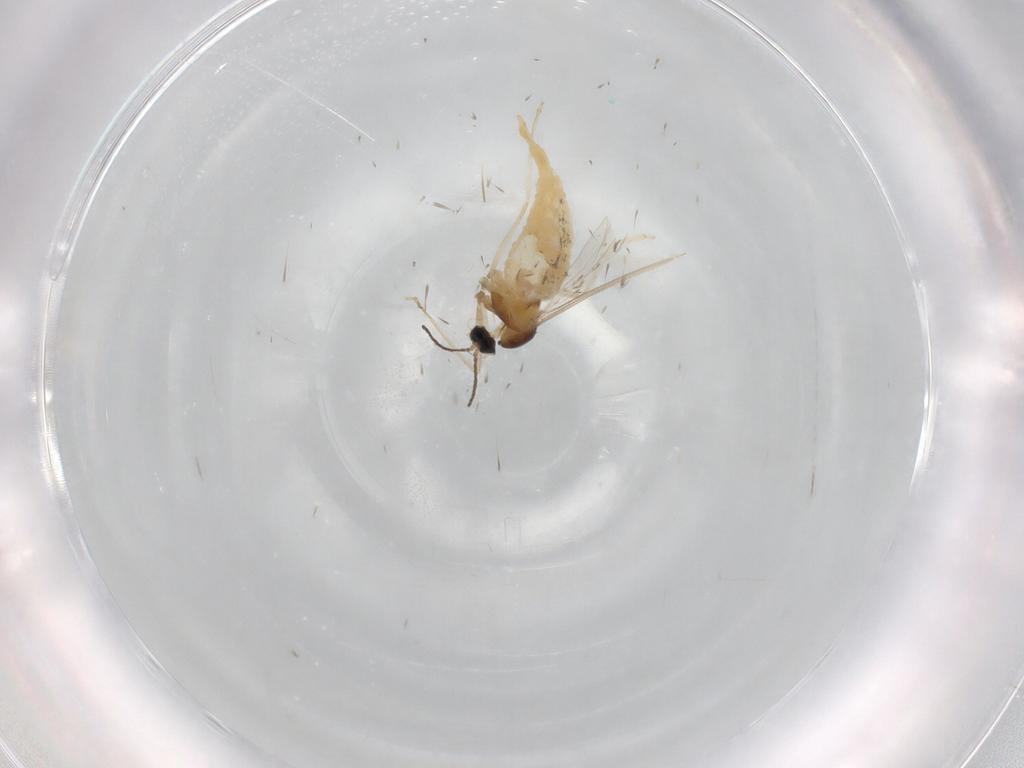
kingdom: Animalia
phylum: Arthropoda
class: Insecta
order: Diptera
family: Cecidomyiidae
